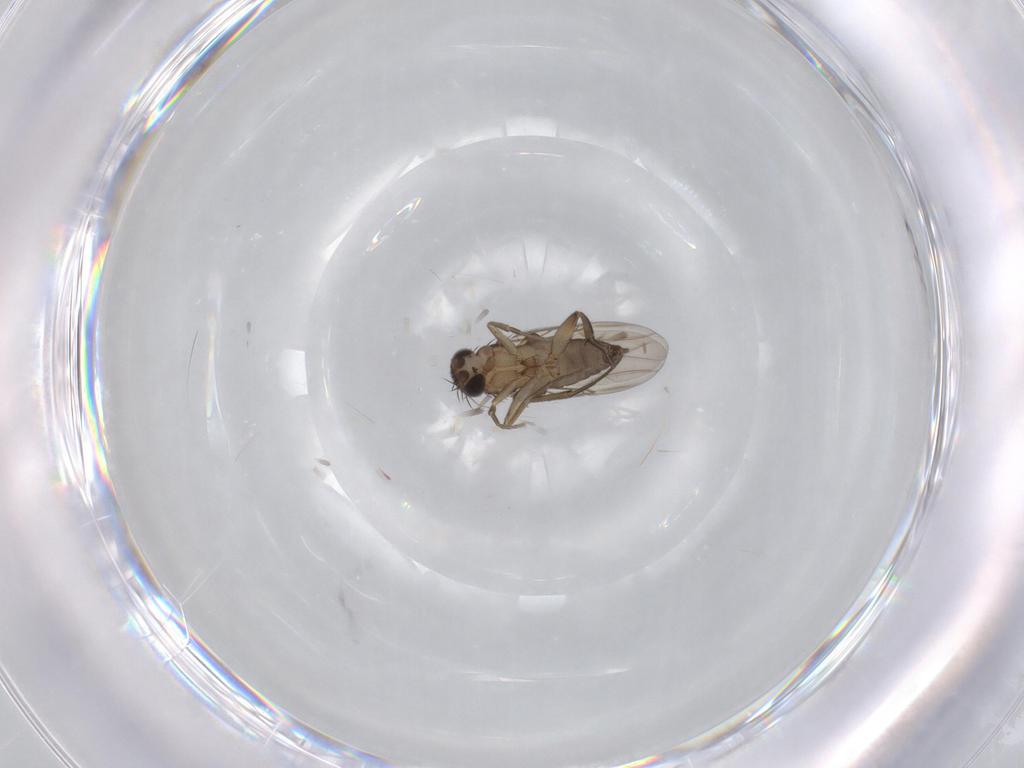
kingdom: Animalia
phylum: Arthropoda
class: Insecta
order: Diptera
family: Phoridae
